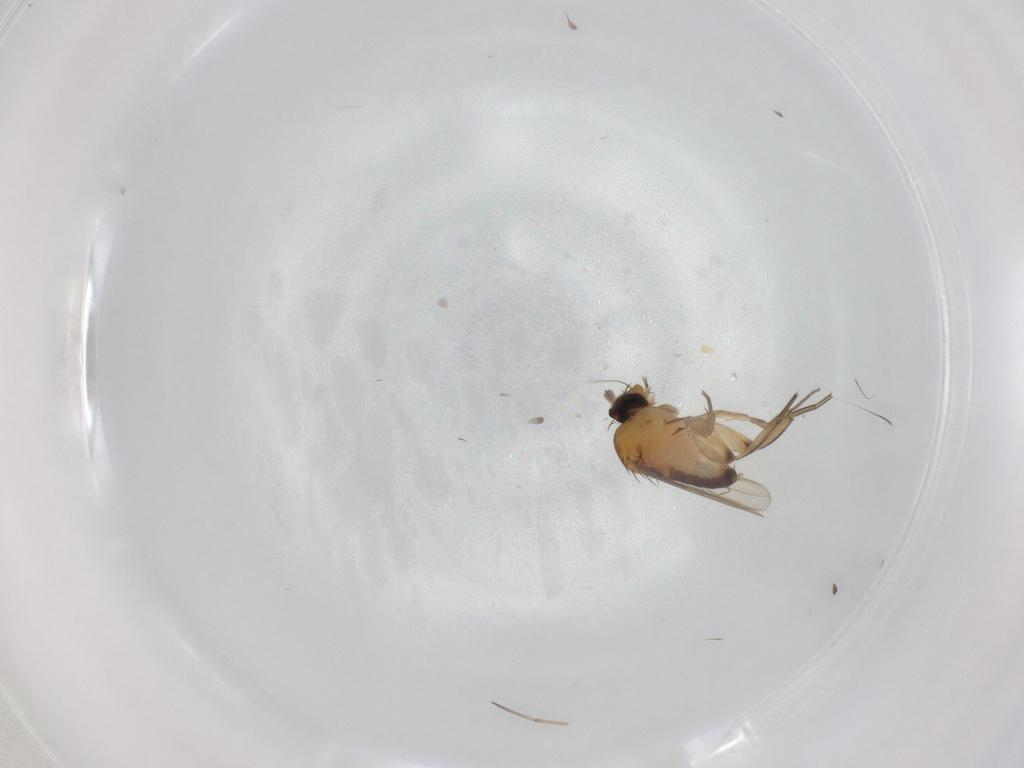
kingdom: Animalia
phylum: Arthropoda
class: Insecta
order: Diptera
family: Phoridae
